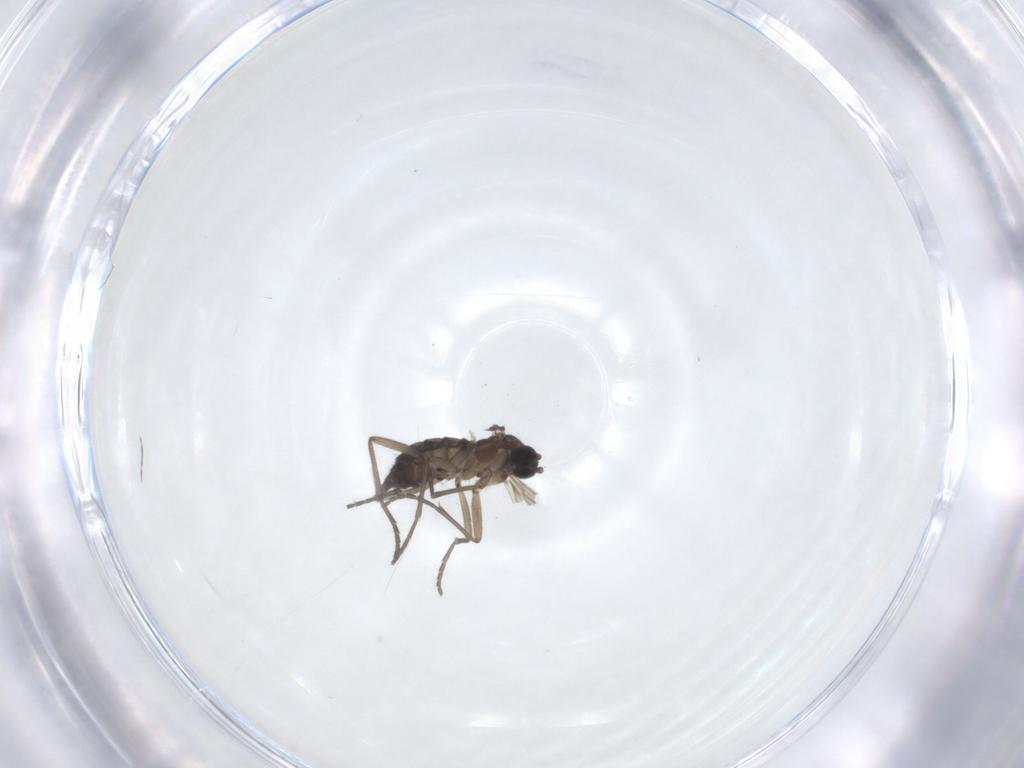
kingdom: Animalia
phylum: Arthropoda
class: Insecta
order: Diptera
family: Sciaridae
